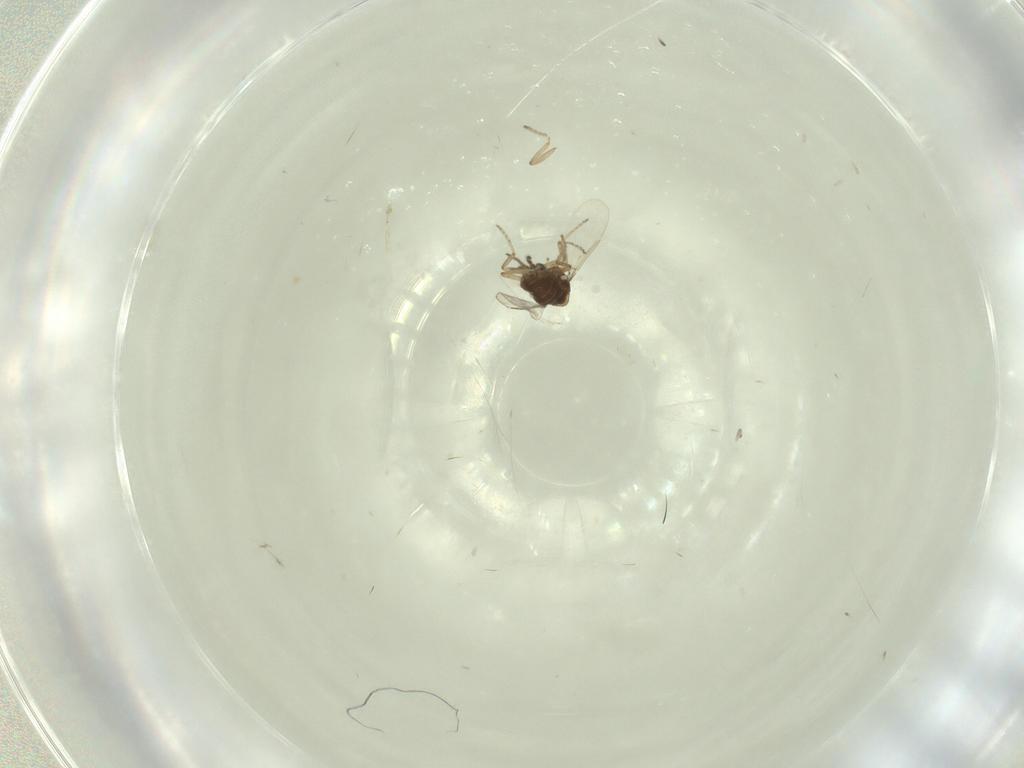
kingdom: Animalia
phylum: Arthropoda
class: Insecta
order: Diptera
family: Ceratopogonidae
